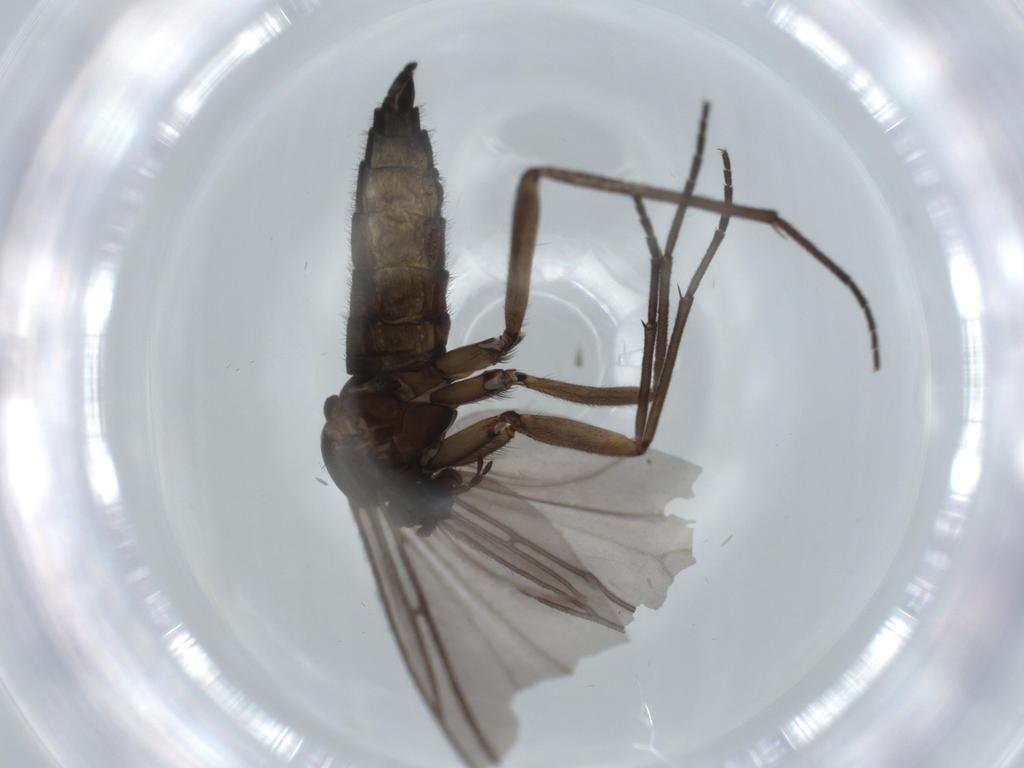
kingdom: Animalia
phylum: Arthropoda
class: Insecta
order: Diptera
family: Sciaridae
